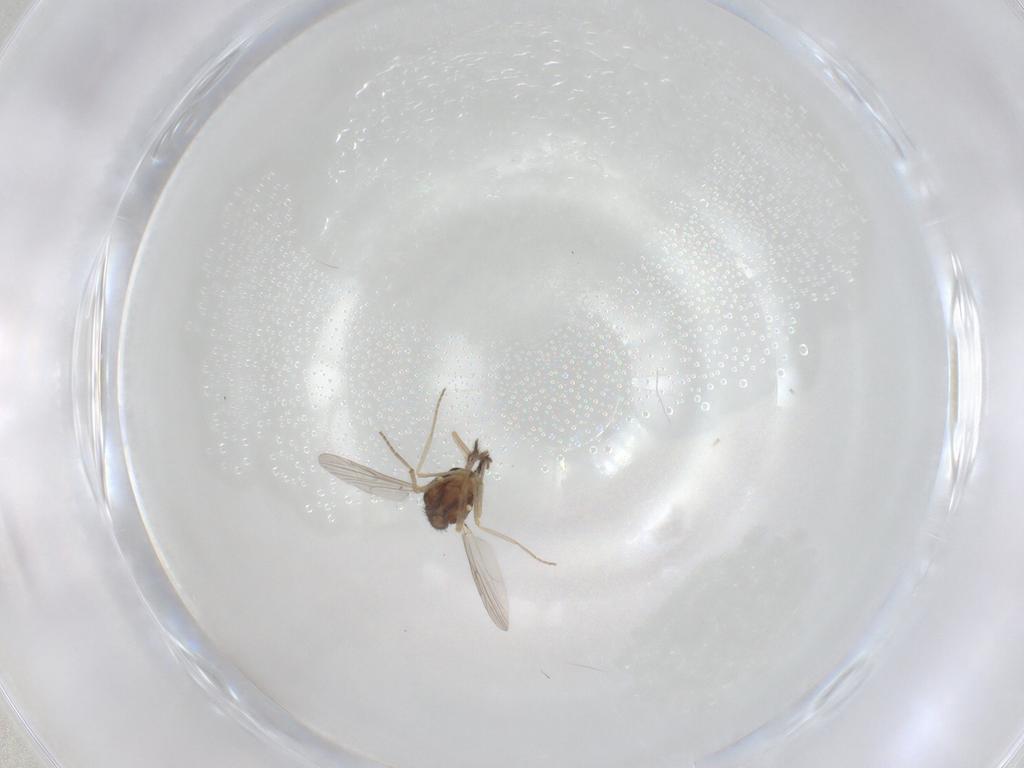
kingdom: Animalia
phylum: Arthropoda
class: Insecta
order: Diptera
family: Ceratopogonidae
